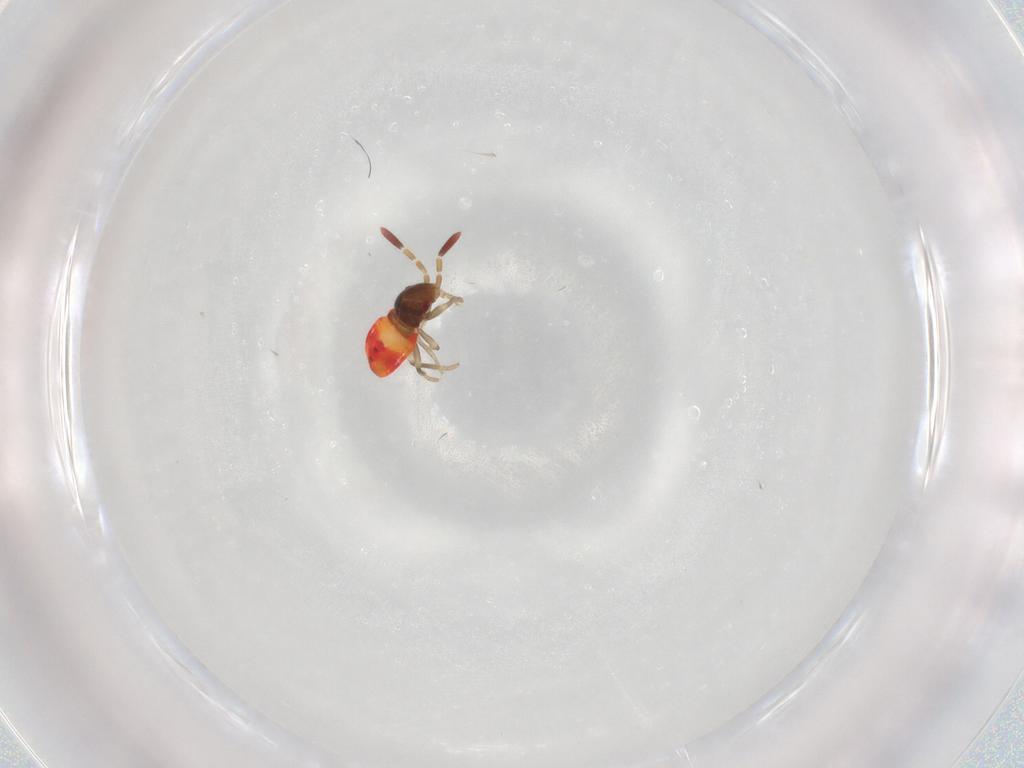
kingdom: Animalia
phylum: Arthropoda
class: Insecta
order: Hemiptera
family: Rhyparochromidae
